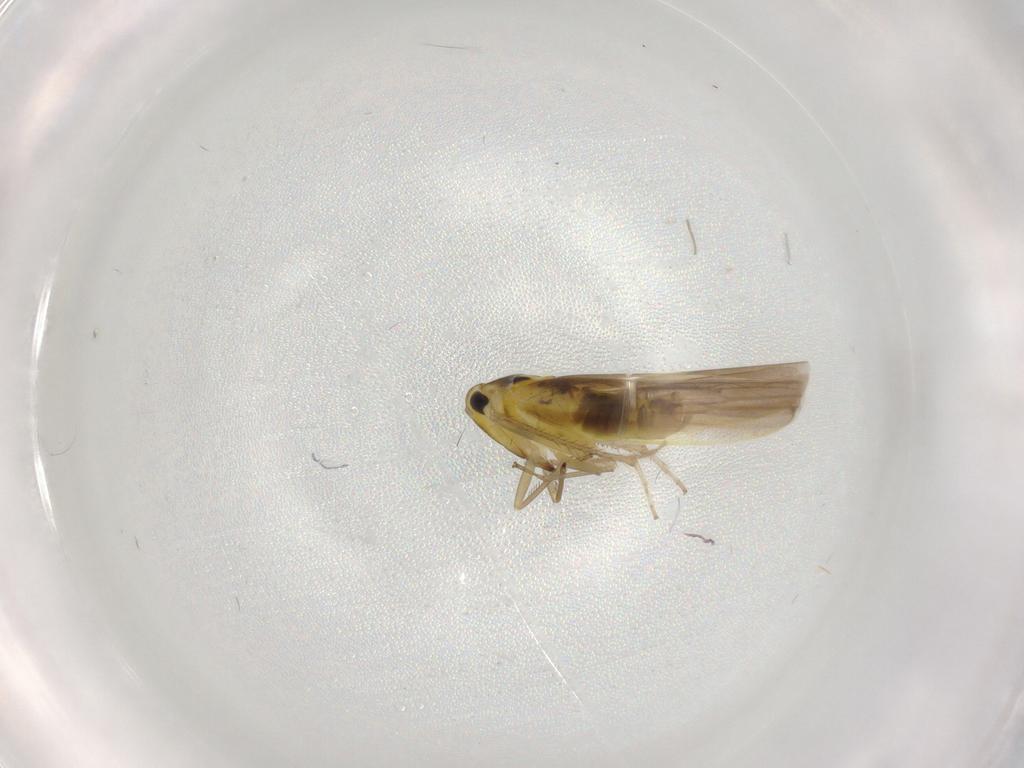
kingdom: Animalia
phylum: Arthropoda
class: Insecta
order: Hemiptera
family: Cicadellidae
